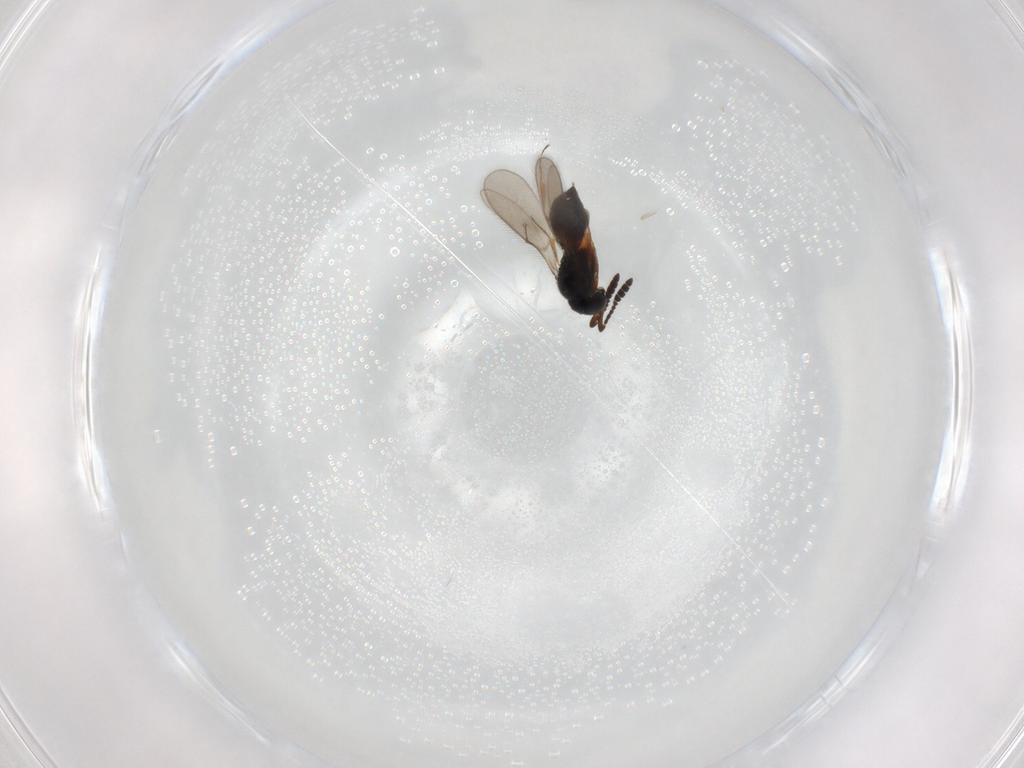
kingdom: Animalia
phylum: Arthropoda
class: Insecta
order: Hymenoptera
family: Scelionidae
